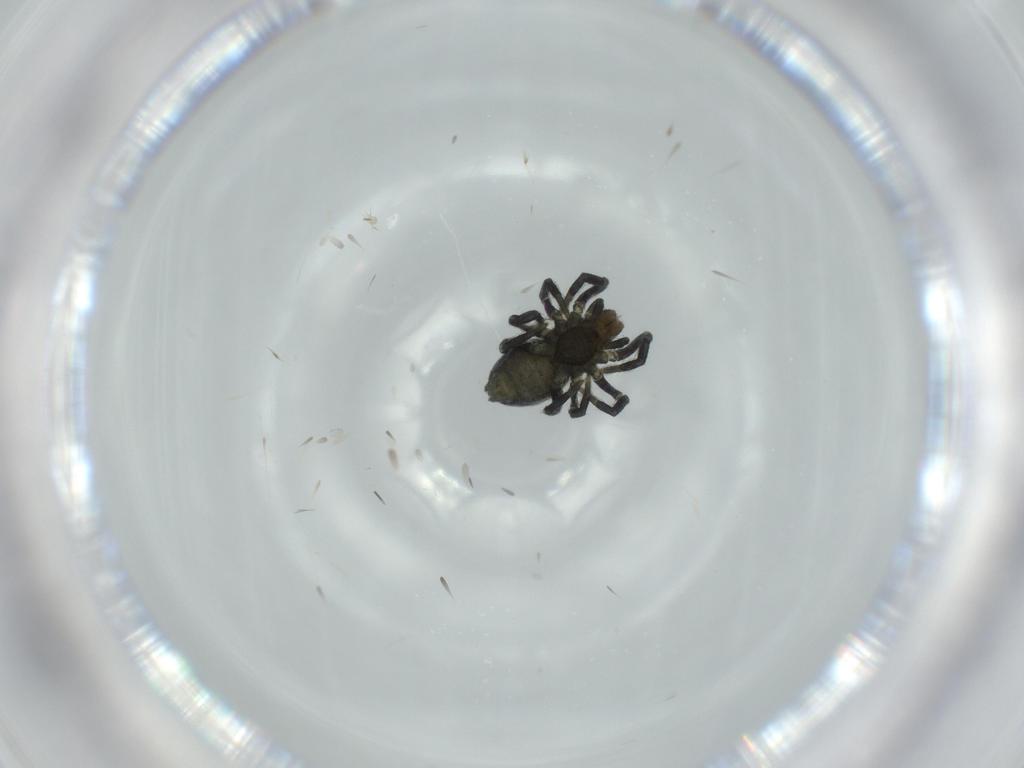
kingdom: Animalia
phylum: Arthropoda
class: Arachnida
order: Araneae
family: Dictynidae
